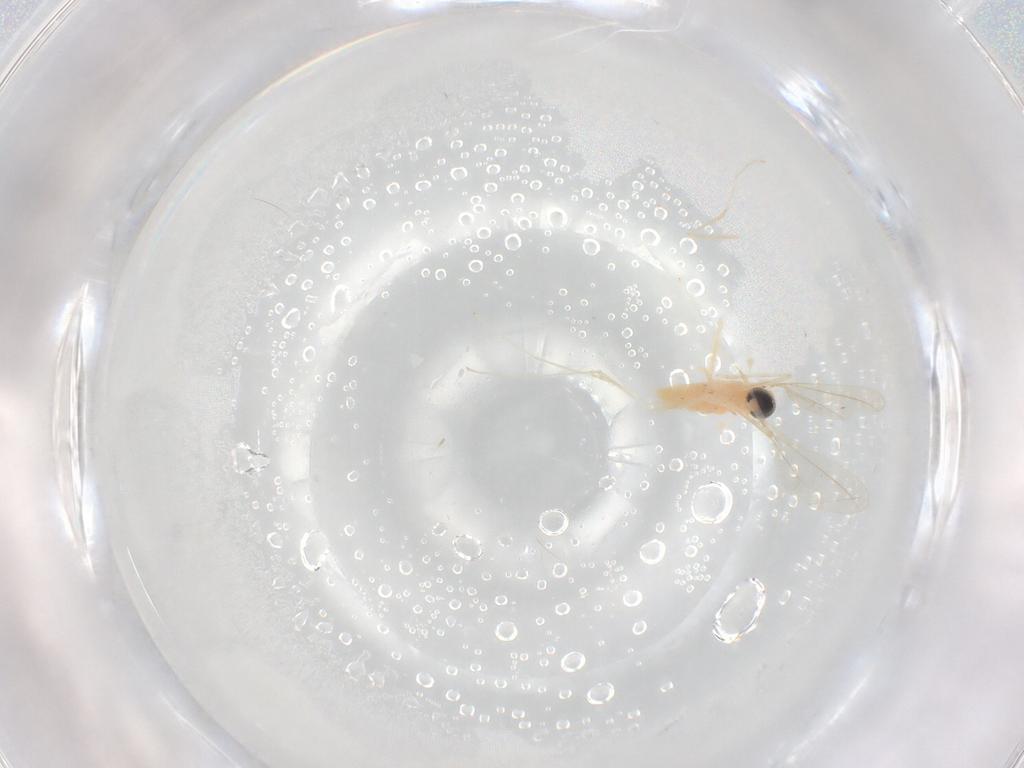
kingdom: Animalia
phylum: Arthropoda
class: Insecta
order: Diptera
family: Cecidomyiidae
